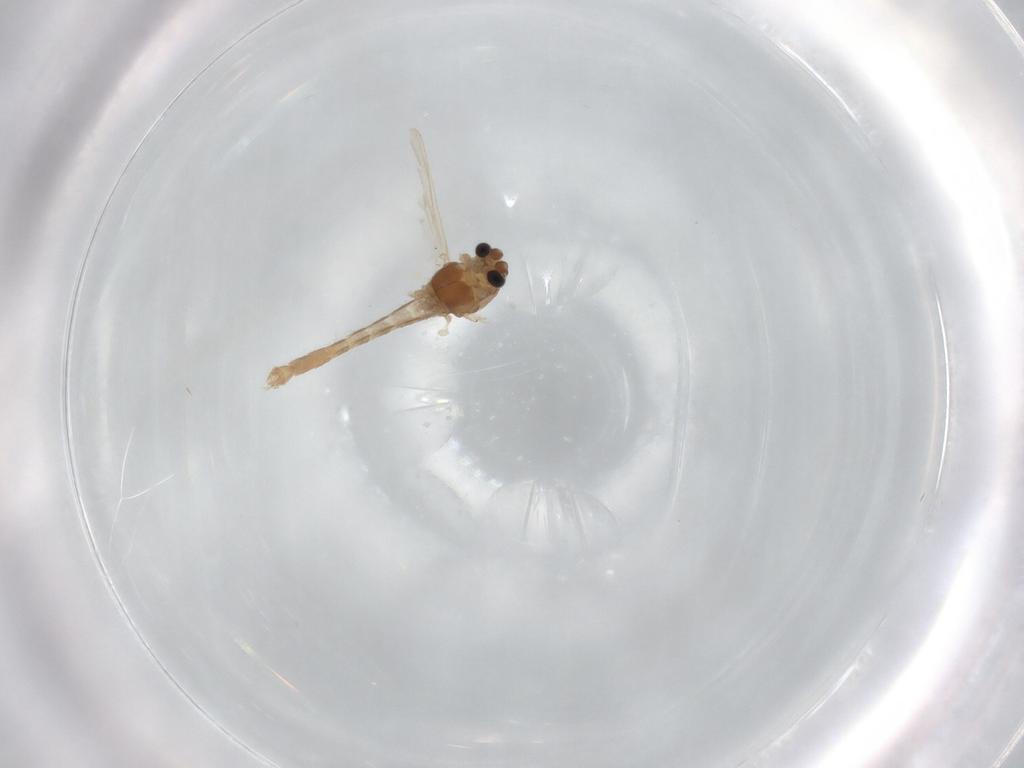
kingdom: Animalia
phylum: Arthropoda
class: Insecta
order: Diptera
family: Chironomidae
